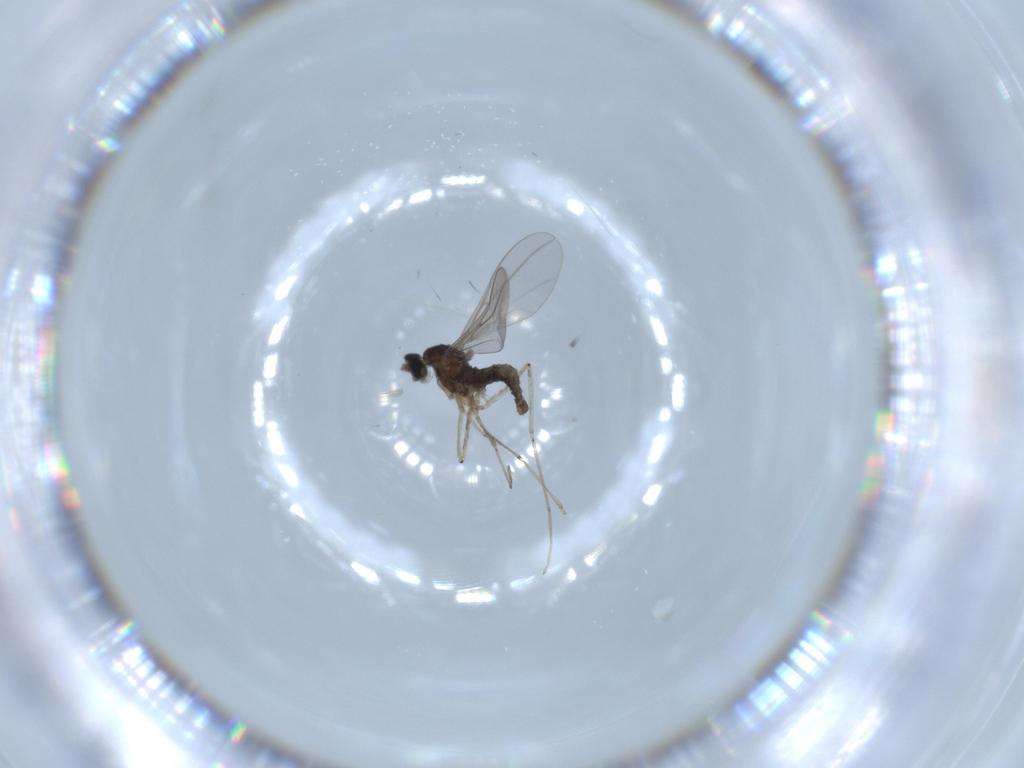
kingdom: Animalia
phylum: Arthropoda
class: Insecta
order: Diptera
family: Cecidomyiidae
